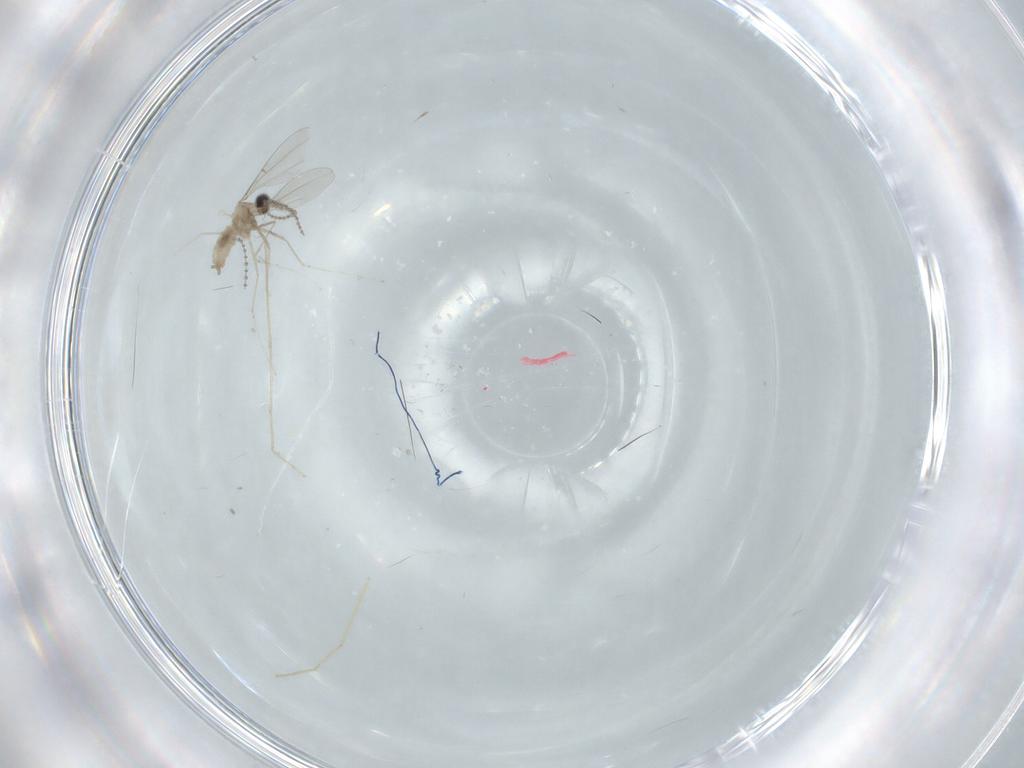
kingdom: Animalia
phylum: Arthropoda
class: Insecta
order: Diptera
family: Cecidomyiidae
